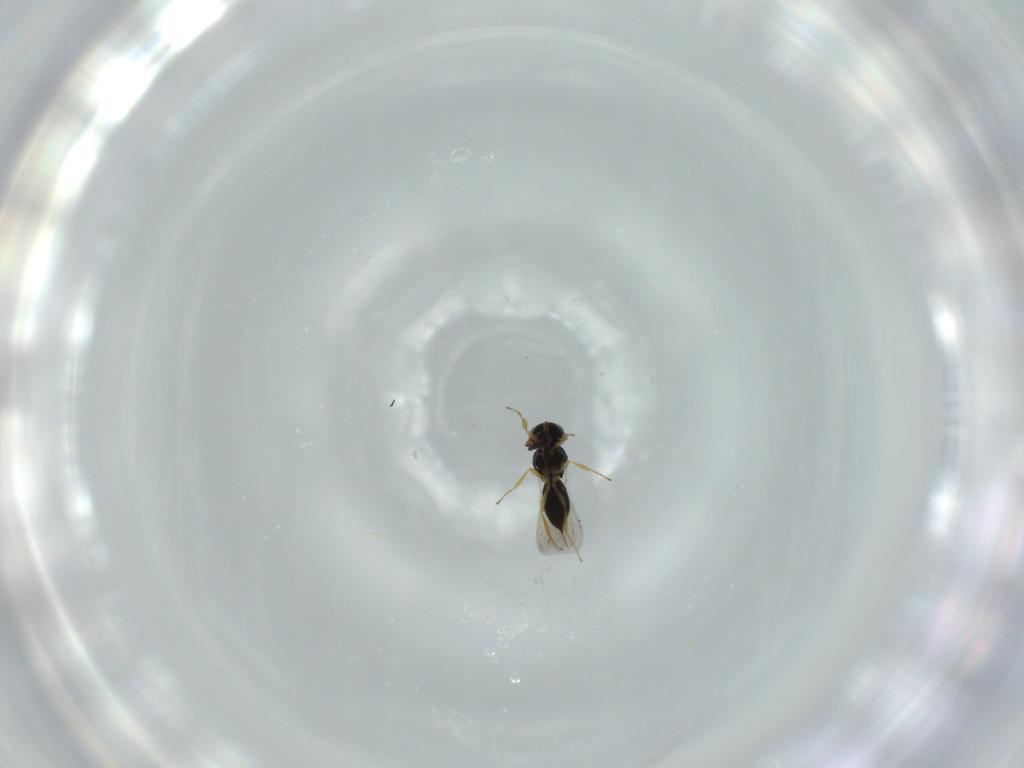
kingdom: Animalia
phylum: Arthropoda
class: Insecta
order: Hymenoptera
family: Scelionidae
